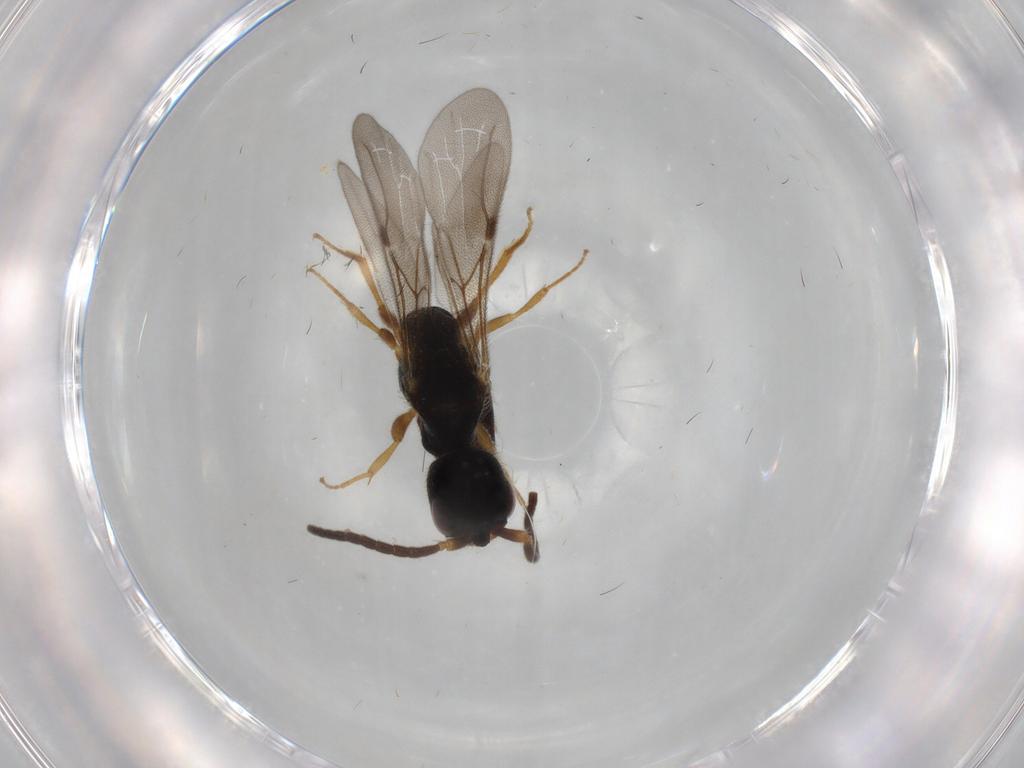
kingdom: Animalia
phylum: Arthropoda
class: Insecta
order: Hymenoptera
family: Bethylidae
